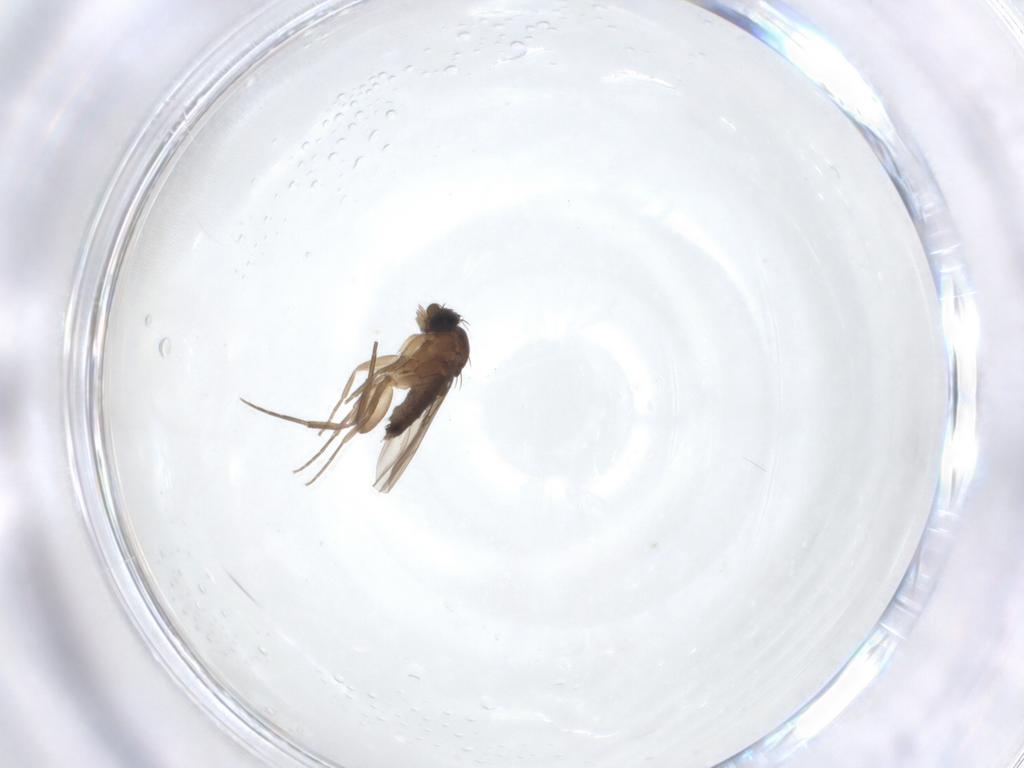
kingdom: Animalia
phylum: Arthropoda
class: Insecta
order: Diptera
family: Phoridae
